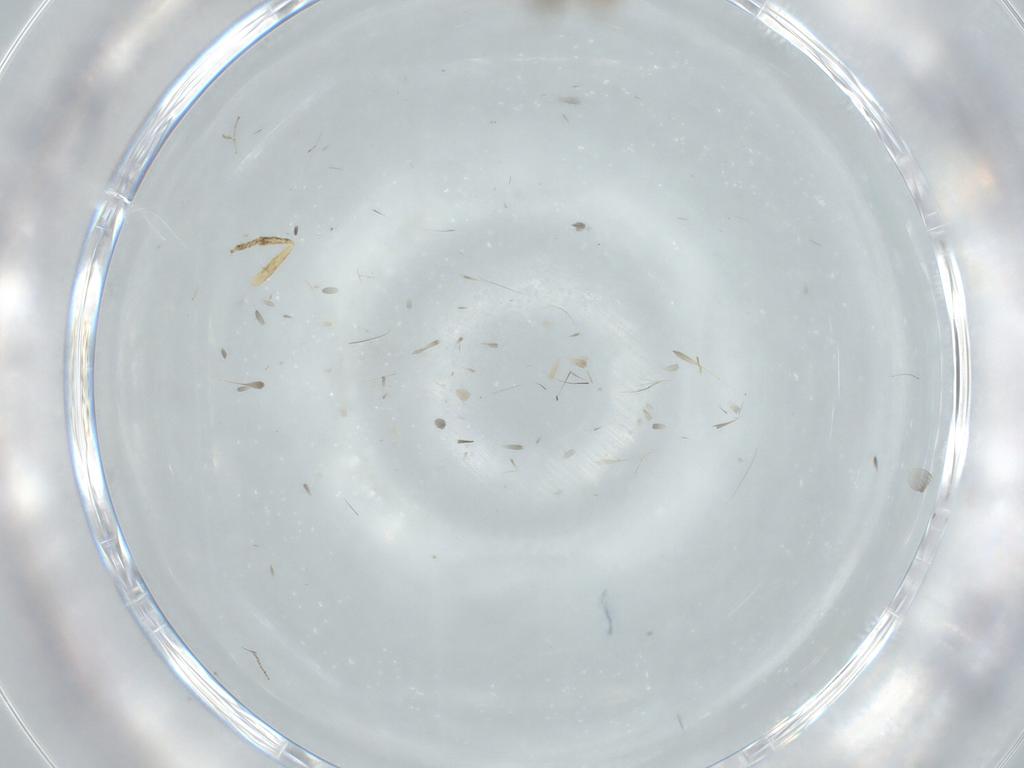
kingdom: Animalia
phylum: Arthropoda
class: Insecta
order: Psocodea
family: Ectopsocidae
